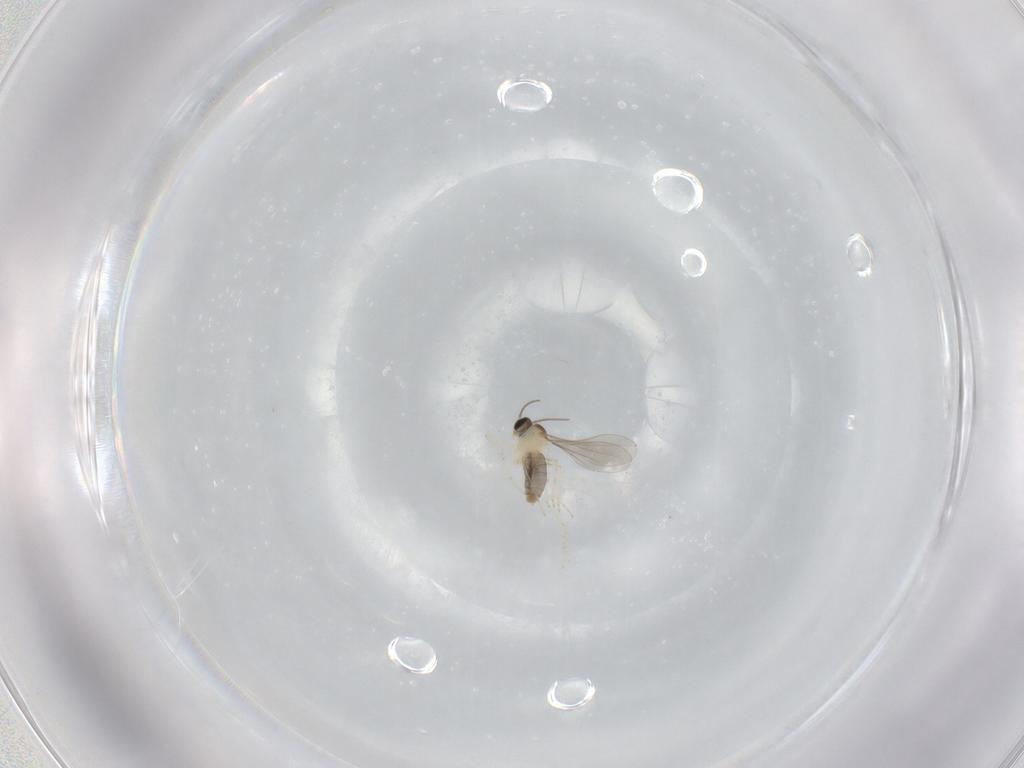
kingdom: Animalia
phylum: Arthropoda
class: Insecta
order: Diptera
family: Cecidomyiidae
